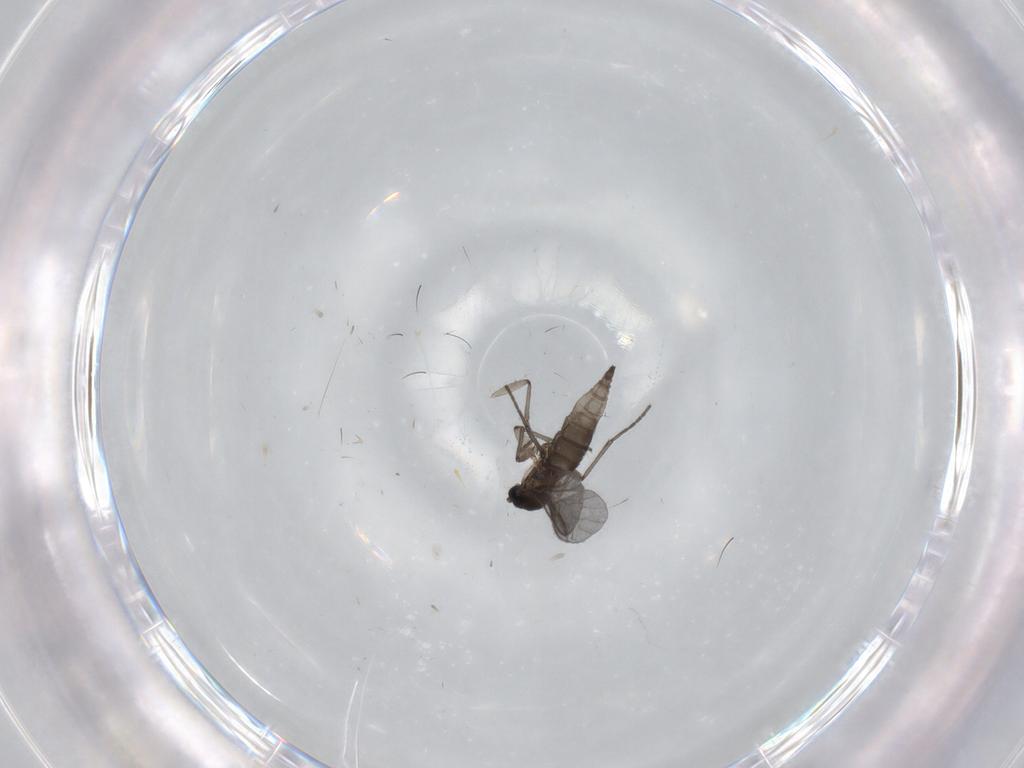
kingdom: Animalia
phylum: Arthropoda
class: Insecta
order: Diptera
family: Sciaridae
